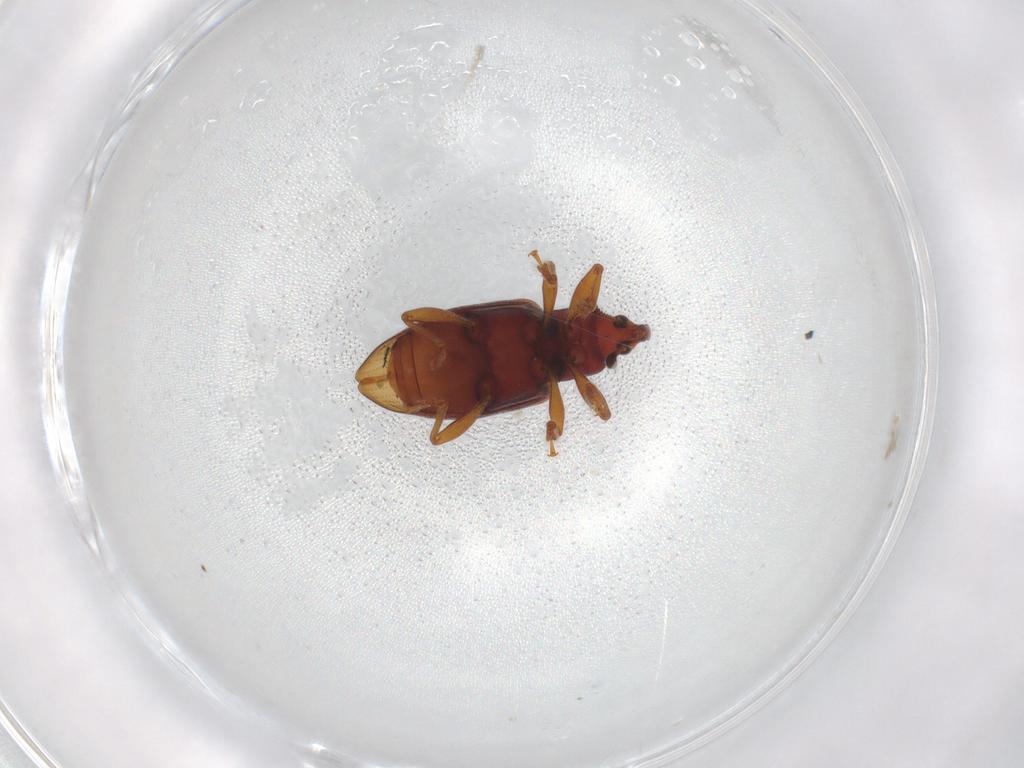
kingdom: Animalia
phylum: Arthropoda
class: Insecta
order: Coleoptera
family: Curculionidae
